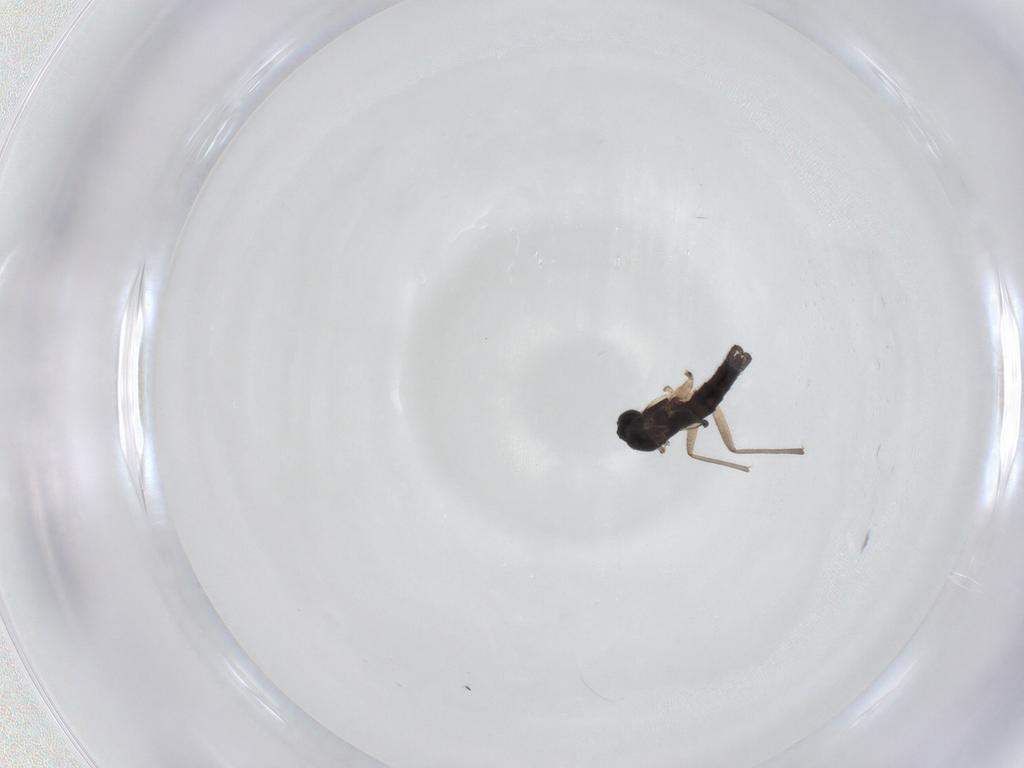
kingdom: Animalia
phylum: Arthropoda
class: Insecta
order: Diptera
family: Sciaridae
